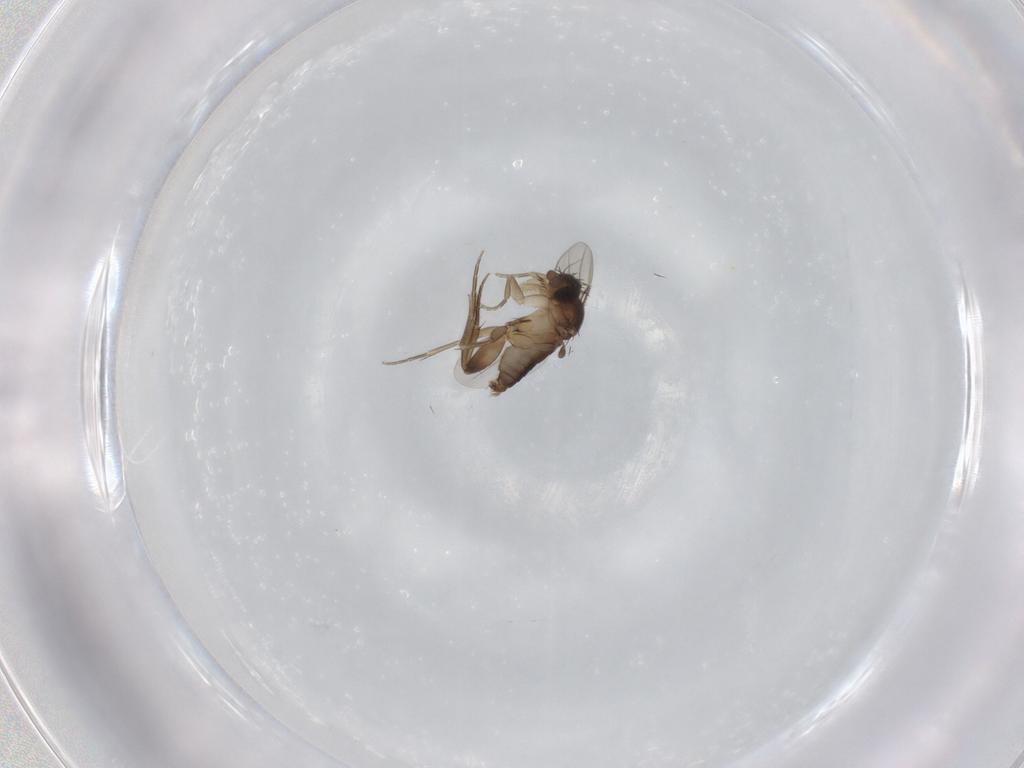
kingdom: Animalia
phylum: Arthropoda
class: Insecta
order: Diptera
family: Phoridae
